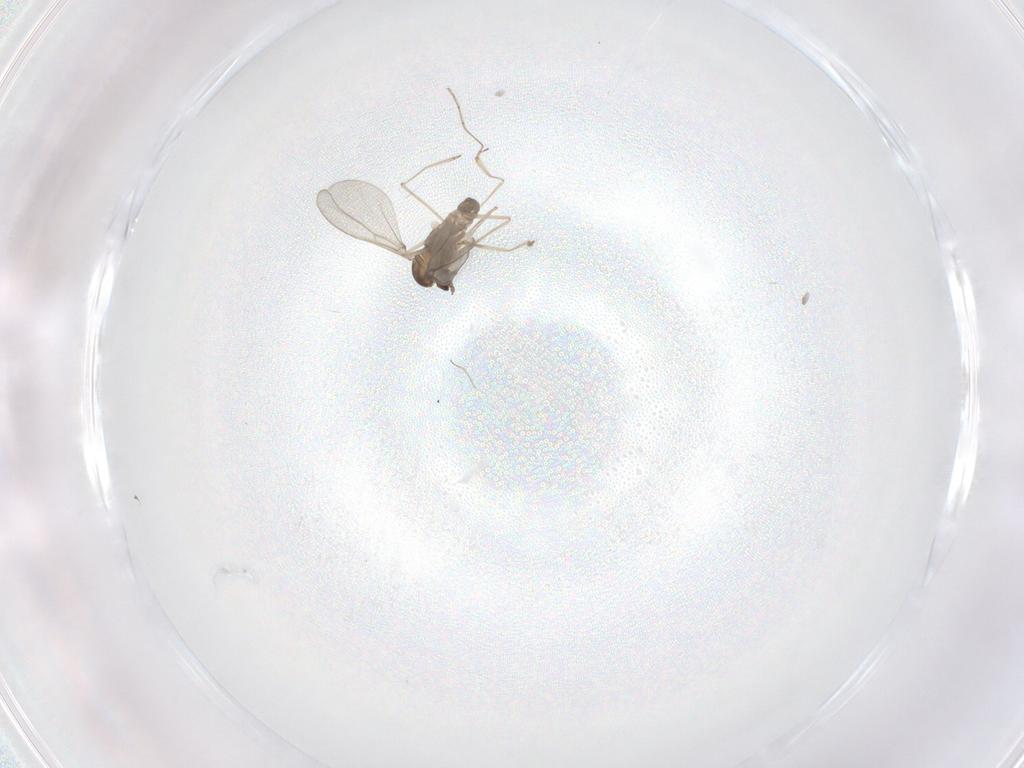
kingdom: Animalia
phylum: Arthropoda
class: Insecta
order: Diptera
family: Cecidomyiidae
